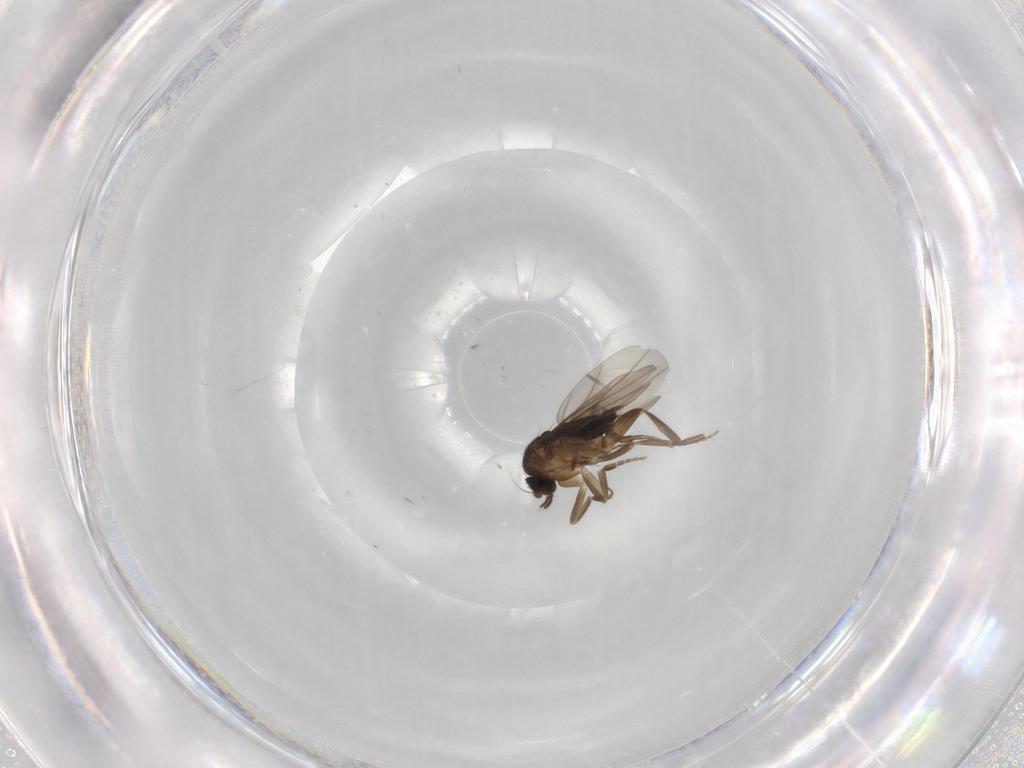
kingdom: Animalia
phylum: Arthropoda
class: Insecta
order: Diptera
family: Phoridae
